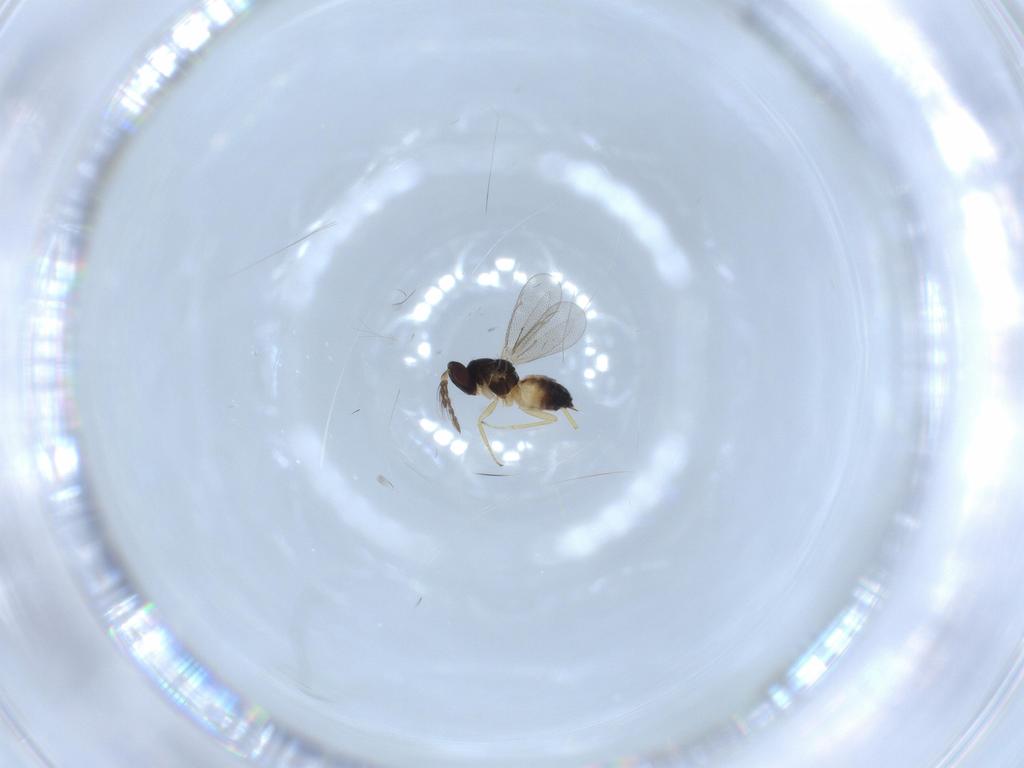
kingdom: Animalia
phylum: Arthropoda
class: Insecta
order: Hymenoptera
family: Eulophidae
